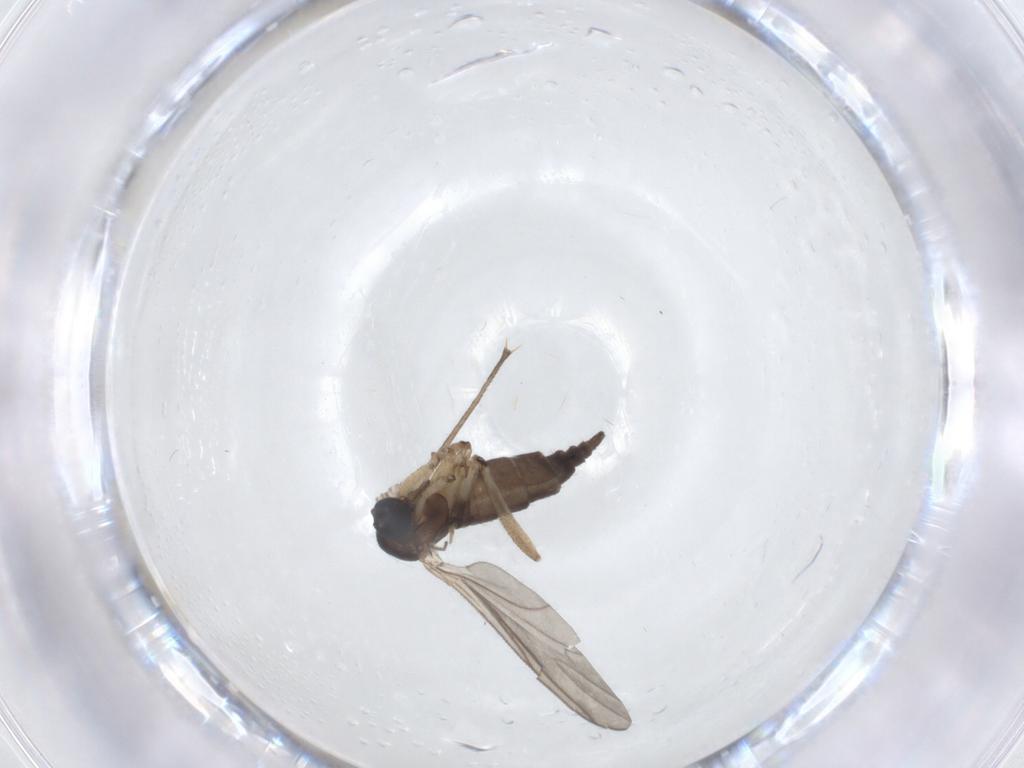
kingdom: Animalia
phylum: Arthropoda
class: Insecta
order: Diptera
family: Sciaridae
